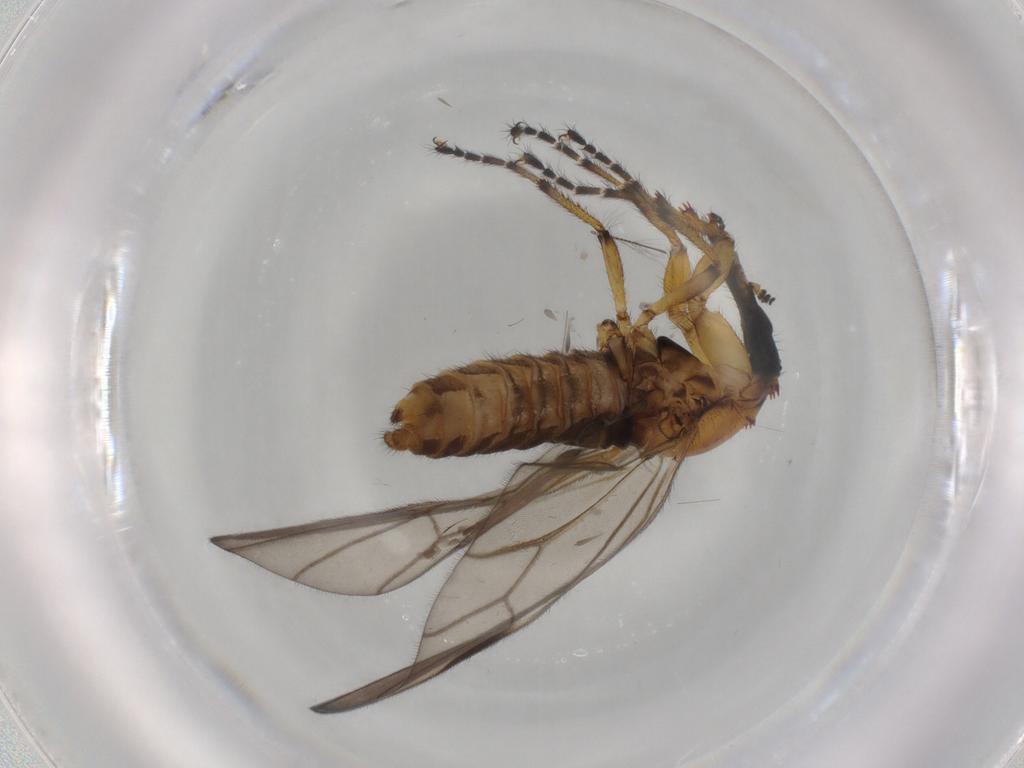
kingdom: Animalia
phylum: Arthropoda
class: Insecta
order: Diptera
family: Bibionidae
